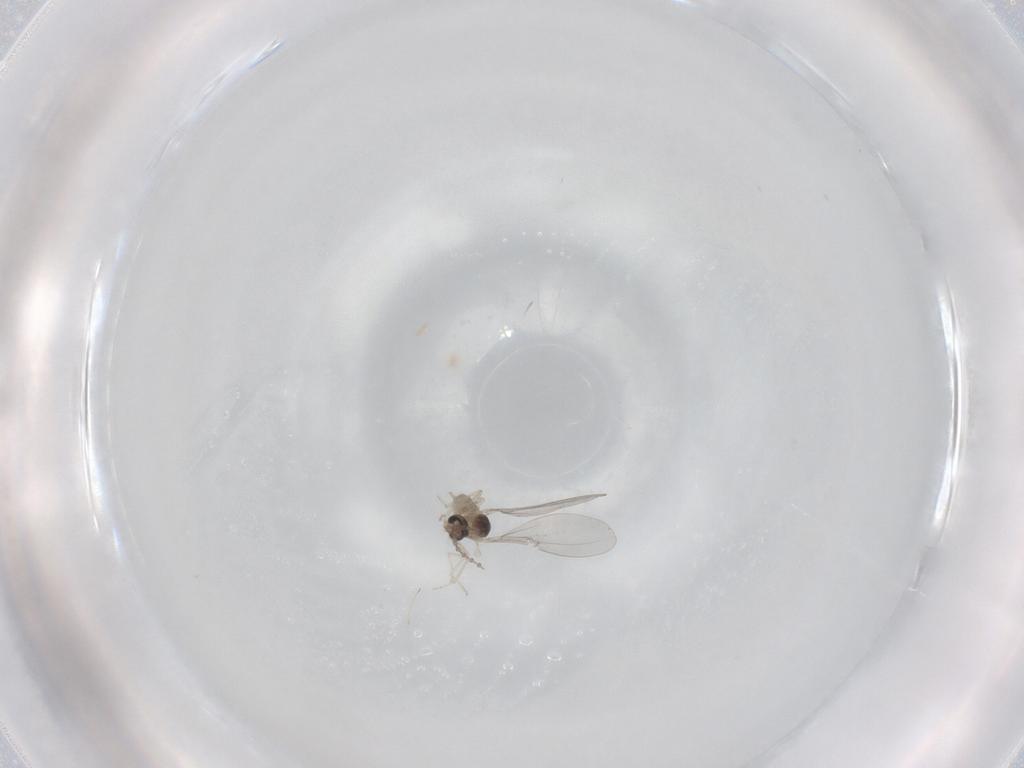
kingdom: Animalia
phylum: Arthropoda
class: Insecta
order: Diptera
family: Cecidomyiidae
